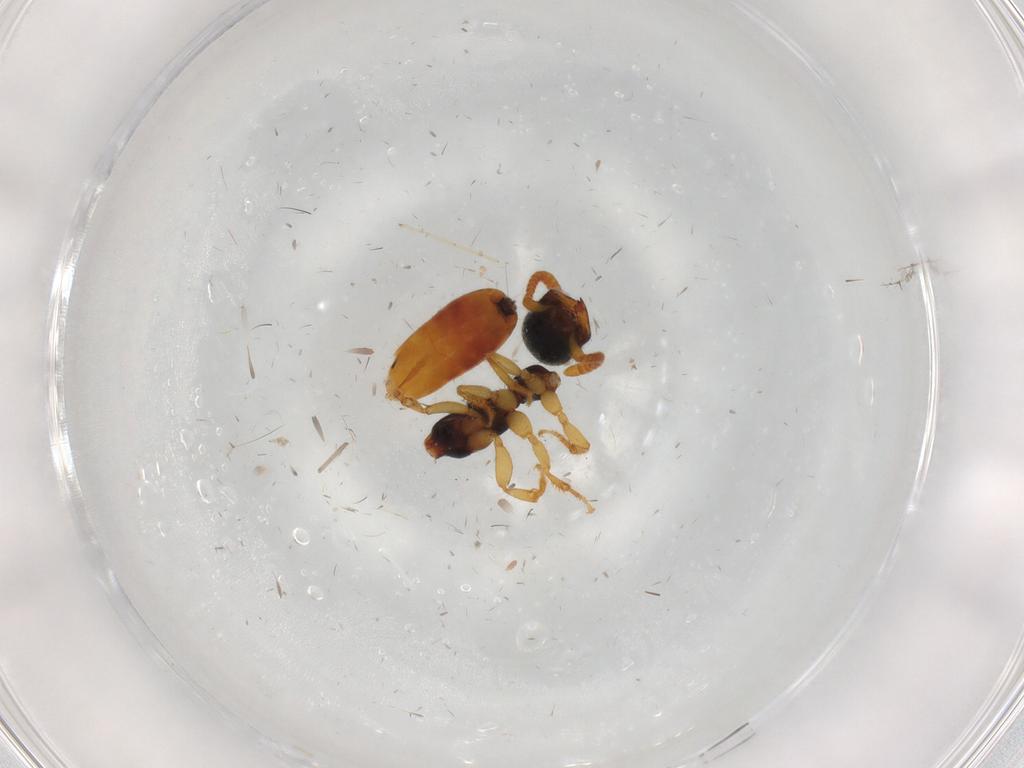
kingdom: Animalia
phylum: Arthropoda
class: Insecta
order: Hymenoptera
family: Bethylidae
